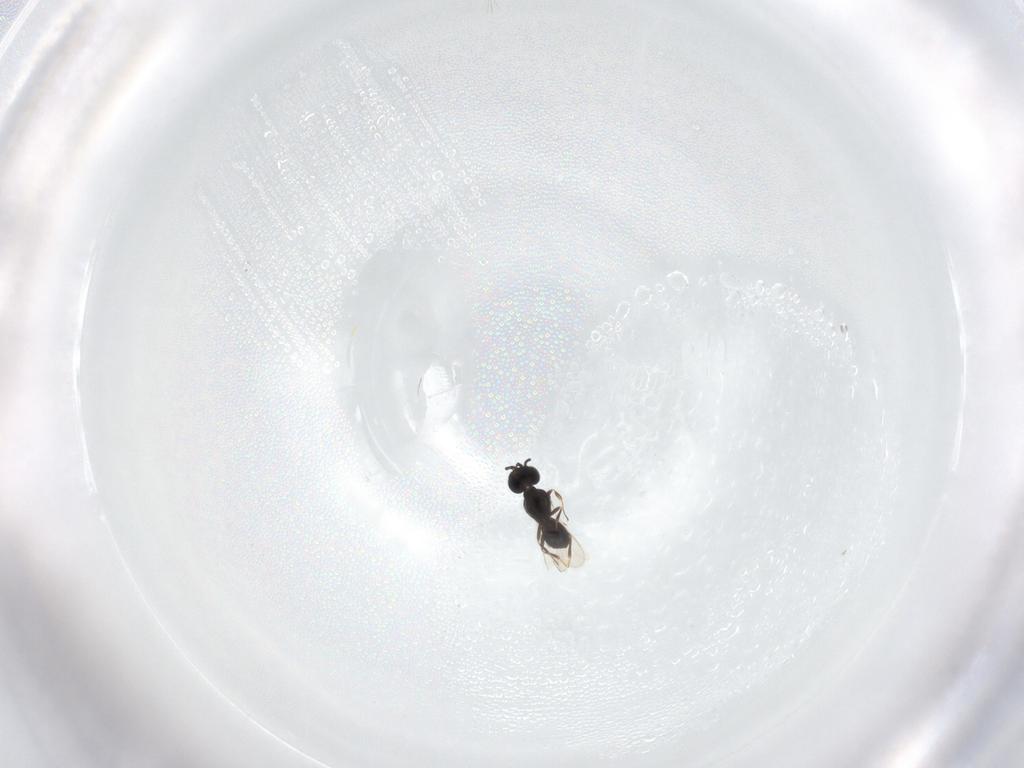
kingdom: Animalia
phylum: Arthropoda
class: Insecta
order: Hymenoptera
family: Scelionidae
